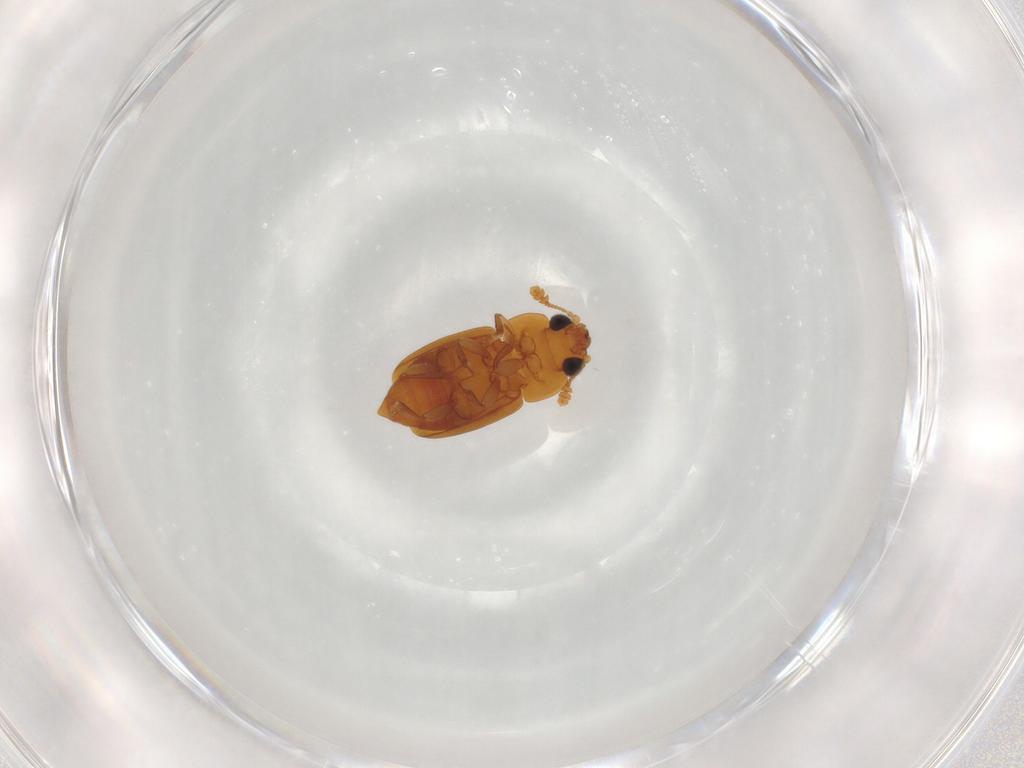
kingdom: Animalia
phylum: Arthropoda
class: Insecta
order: Coleoptera
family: Nitidulidae
